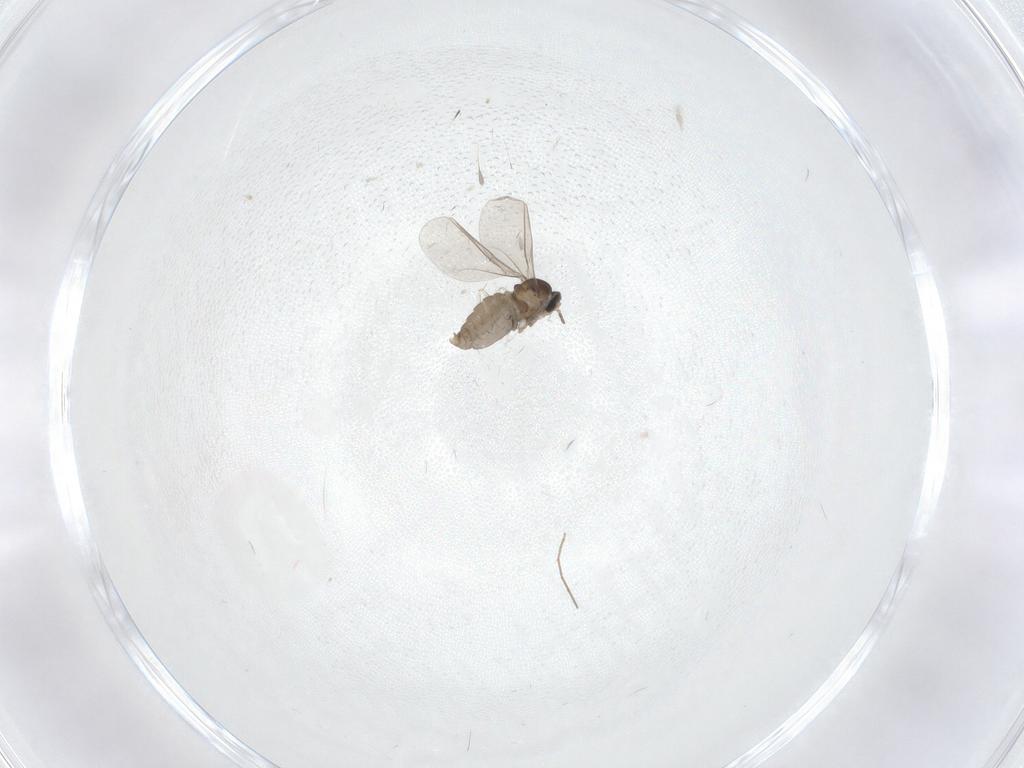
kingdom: Animalia
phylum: Arthropoda
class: Insecta
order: Diptera
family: Cecidomyiidae
